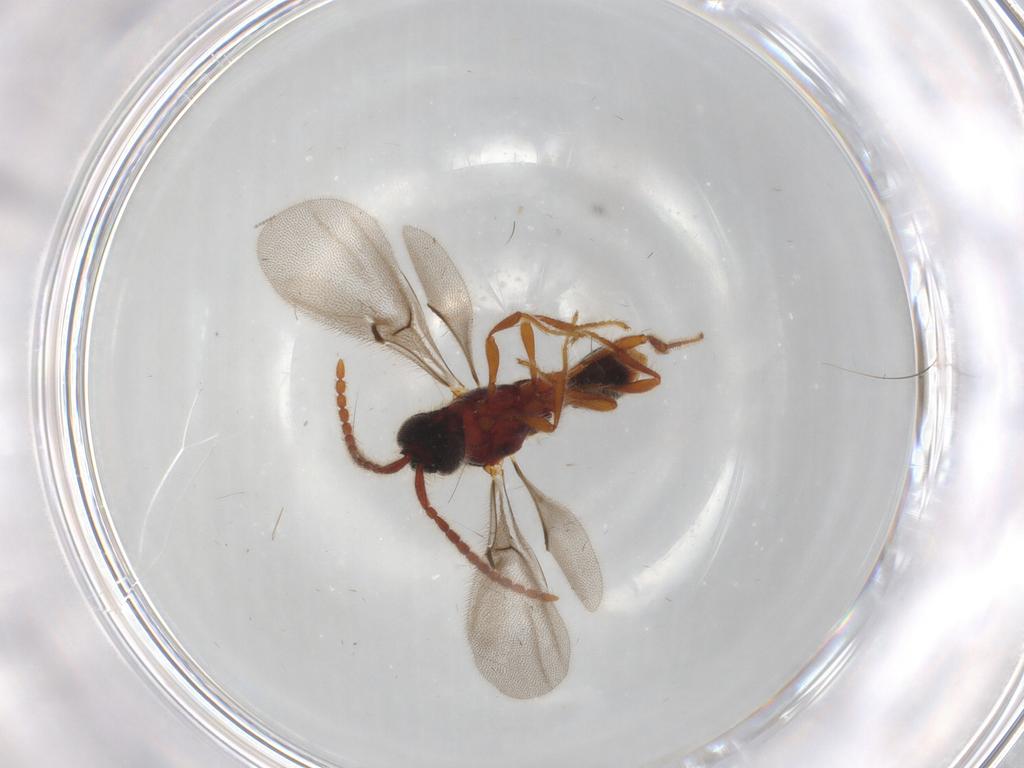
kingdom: Animalia
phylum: Arthropoda
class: Insecta
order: Hymenoptera
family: Diapriidae
